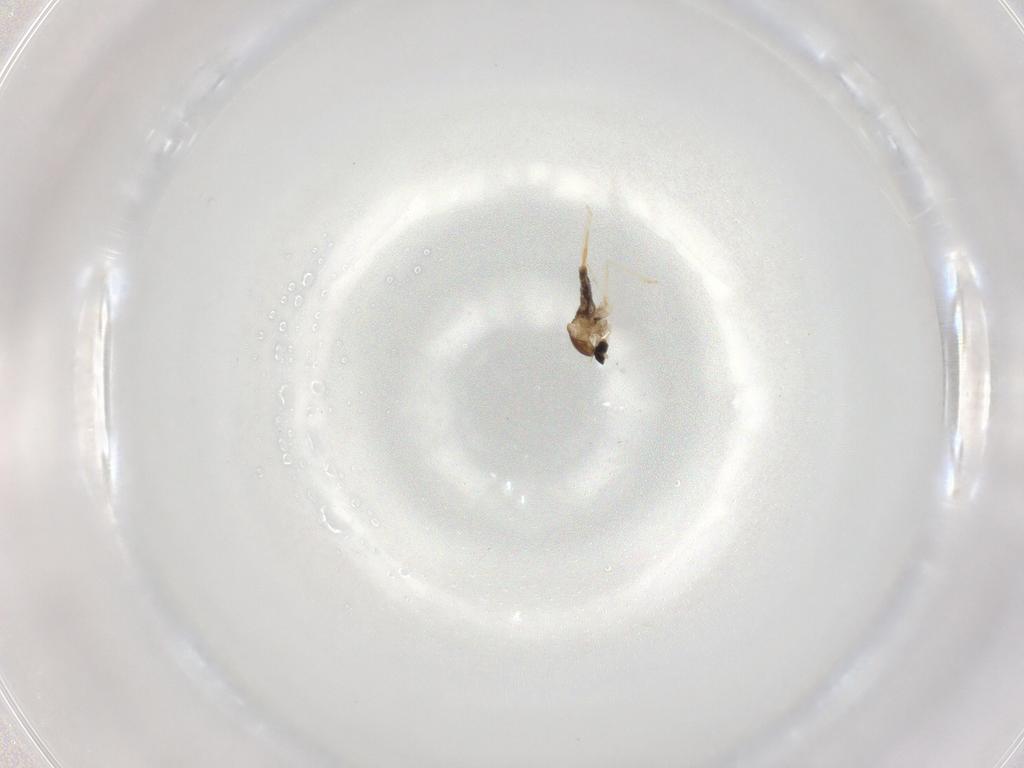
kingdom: Animalia
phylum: Arthropoda
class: Insecta
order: Diptera
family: Cecidomyiidae
